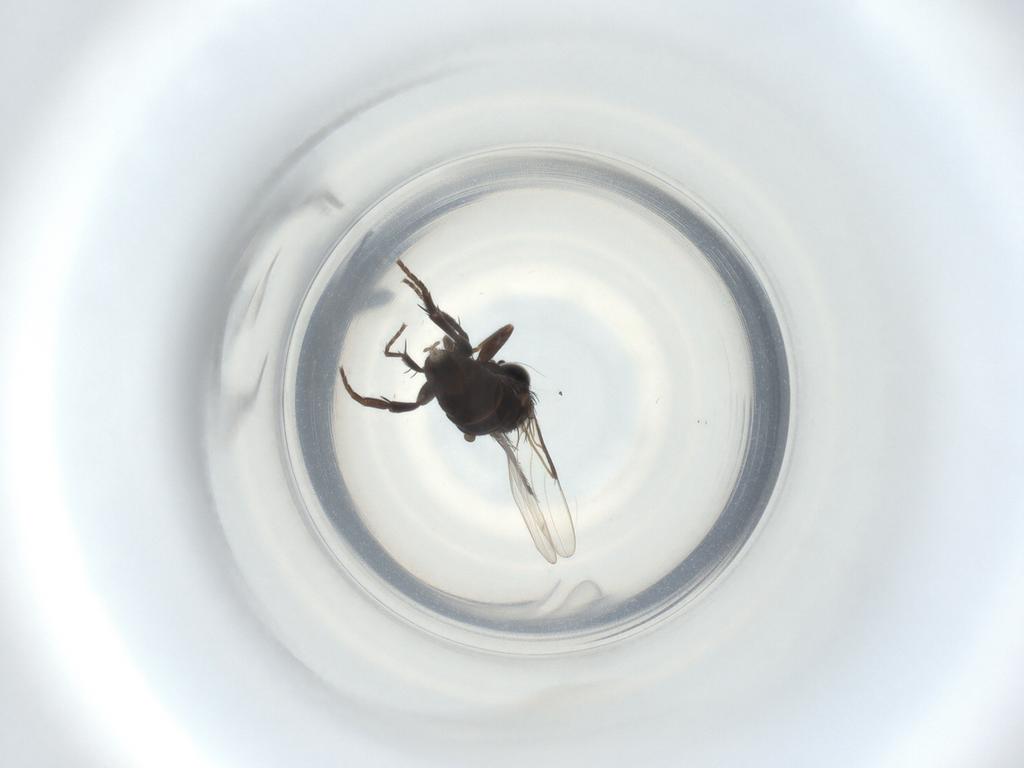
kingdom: Animalia
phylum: Arthropoda
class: Insecta
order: Diptera
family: Phoridae
